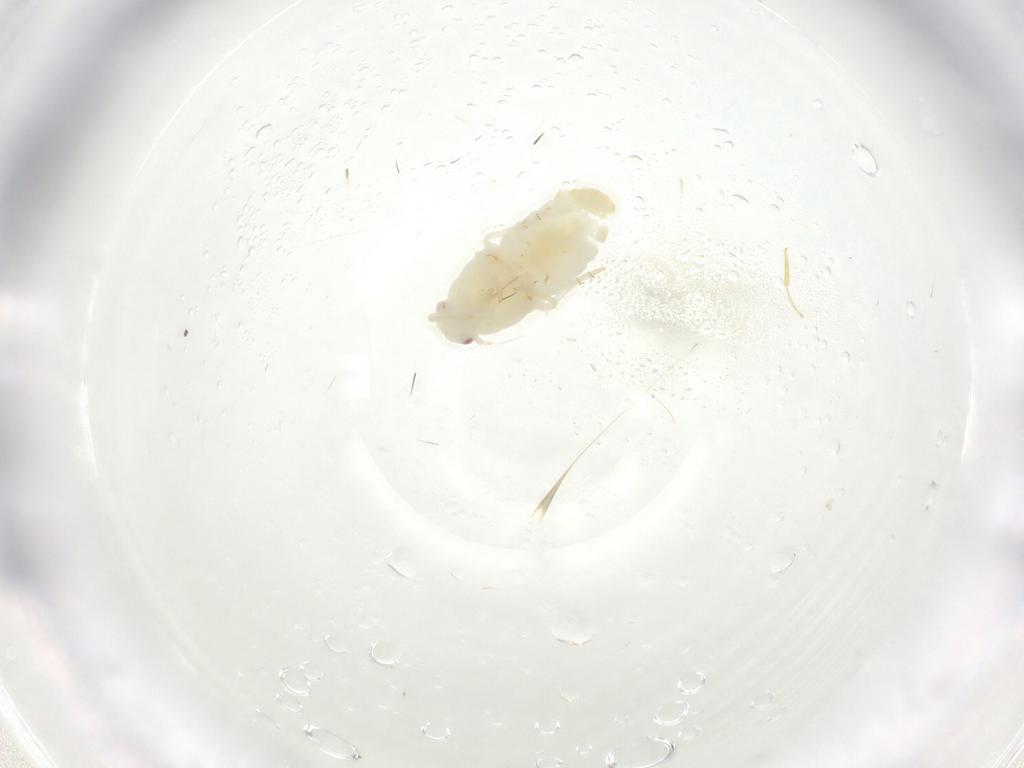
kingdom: Animalia
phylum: Arthropoda
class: Insecta
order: Hemiptera
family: Fulgoroidea_incertae_sedis
